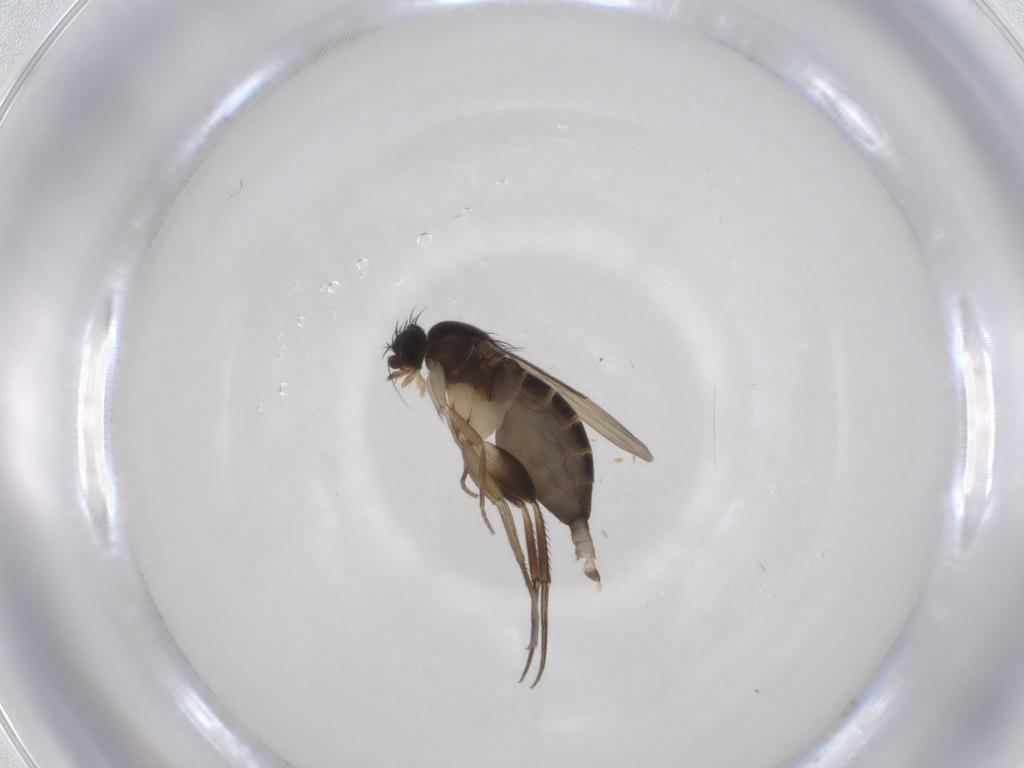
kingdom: Animalia
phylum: Arthropoda
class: Insecta
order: Diptera
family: Phoridae
